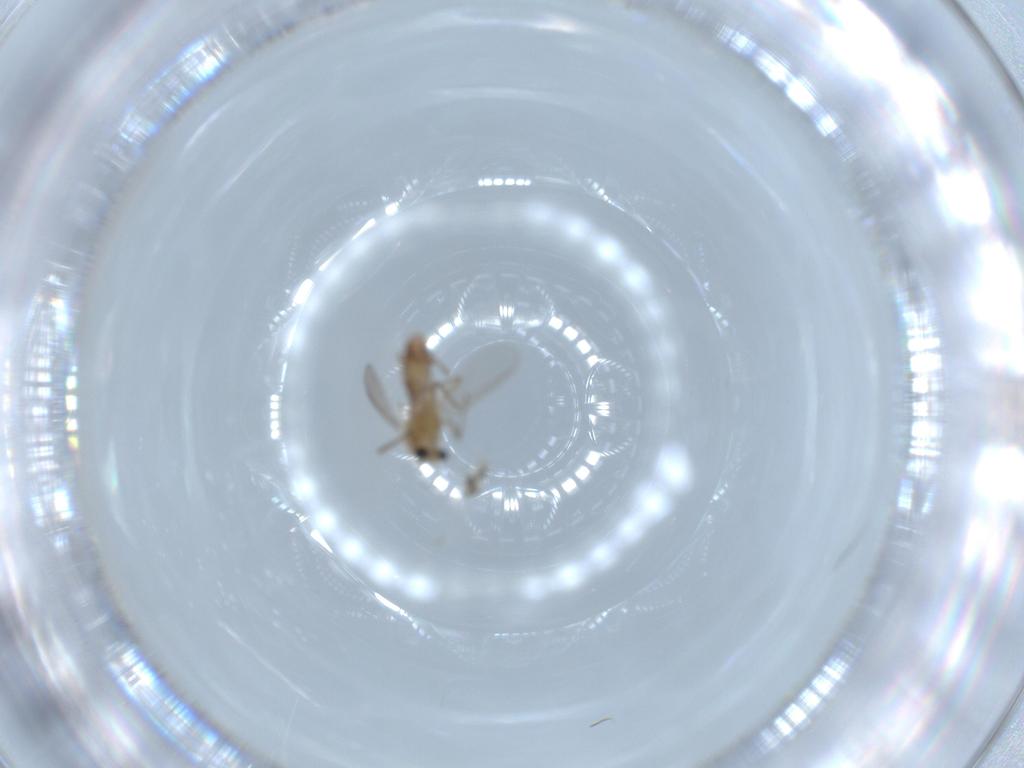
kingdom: Animalia
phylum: Arthropoda
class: Insecta
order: Diptera
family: Chironomidae
